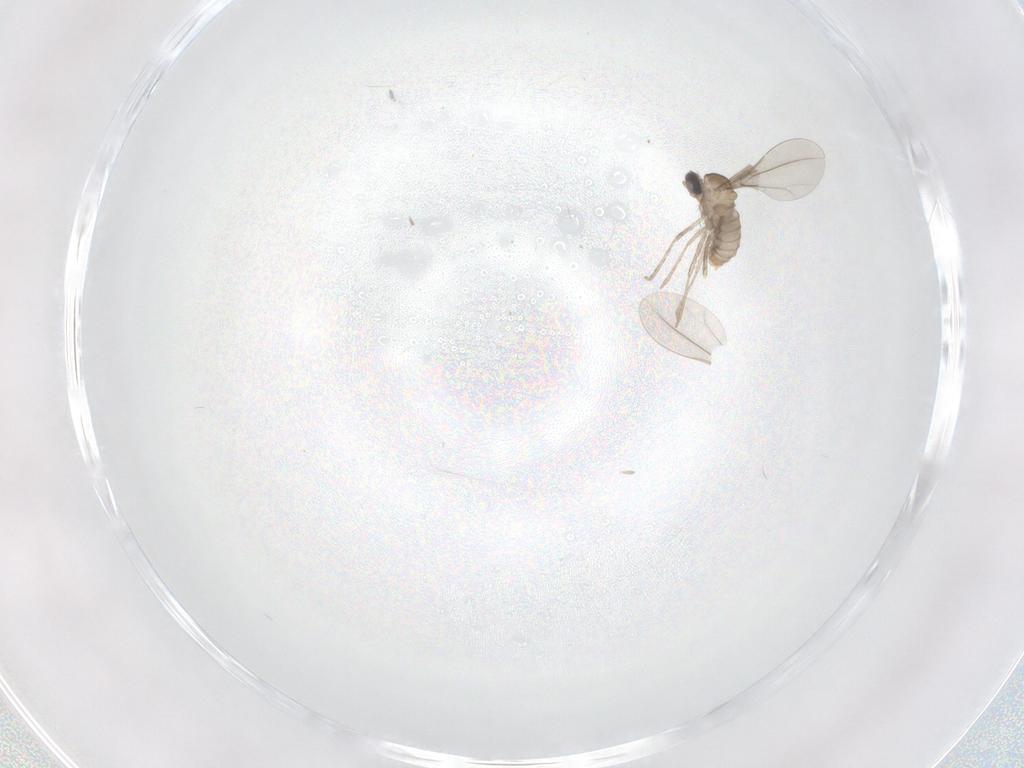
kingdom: Animalia
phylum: Arthropoda
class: Insecta
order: Diptera
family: Cecidomyiidae
